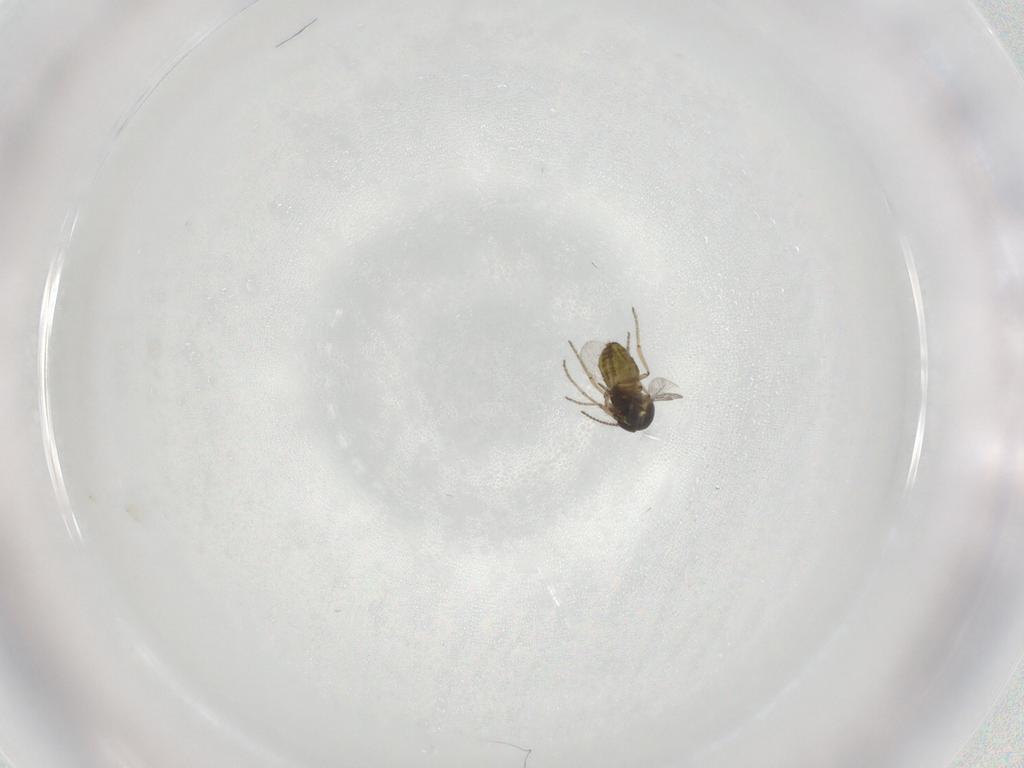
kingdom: Animalia
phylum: Arthropoda
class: Insecta
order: Diptera
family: Ceratopogonidae
